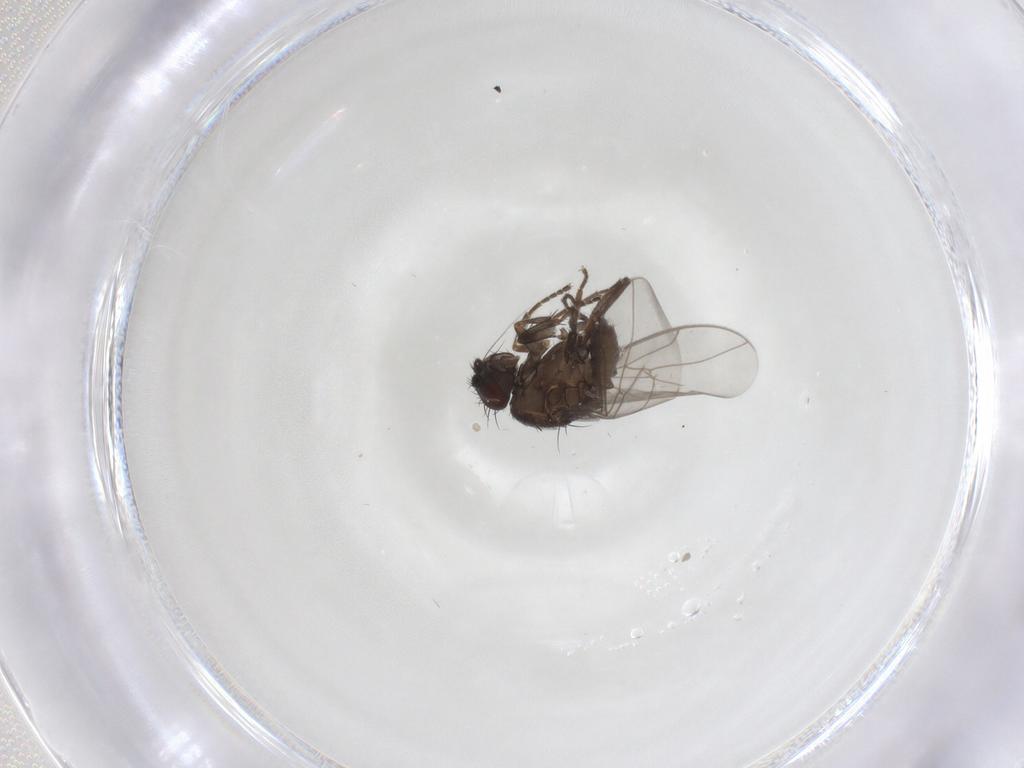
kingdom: Animalia
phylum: Arthropoda
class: Insecta
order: Diptera
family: Sphaeroceridae
